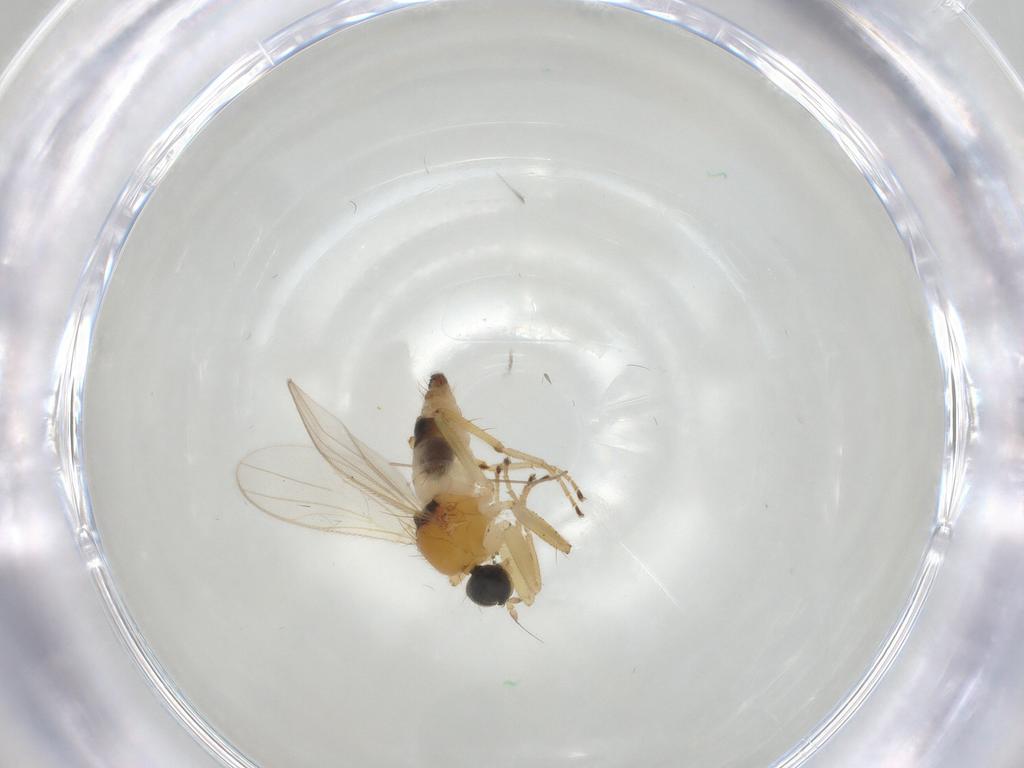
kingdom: Animalia
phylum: Arthropoda
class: Insecta
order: Diptera
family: Hybotidae
